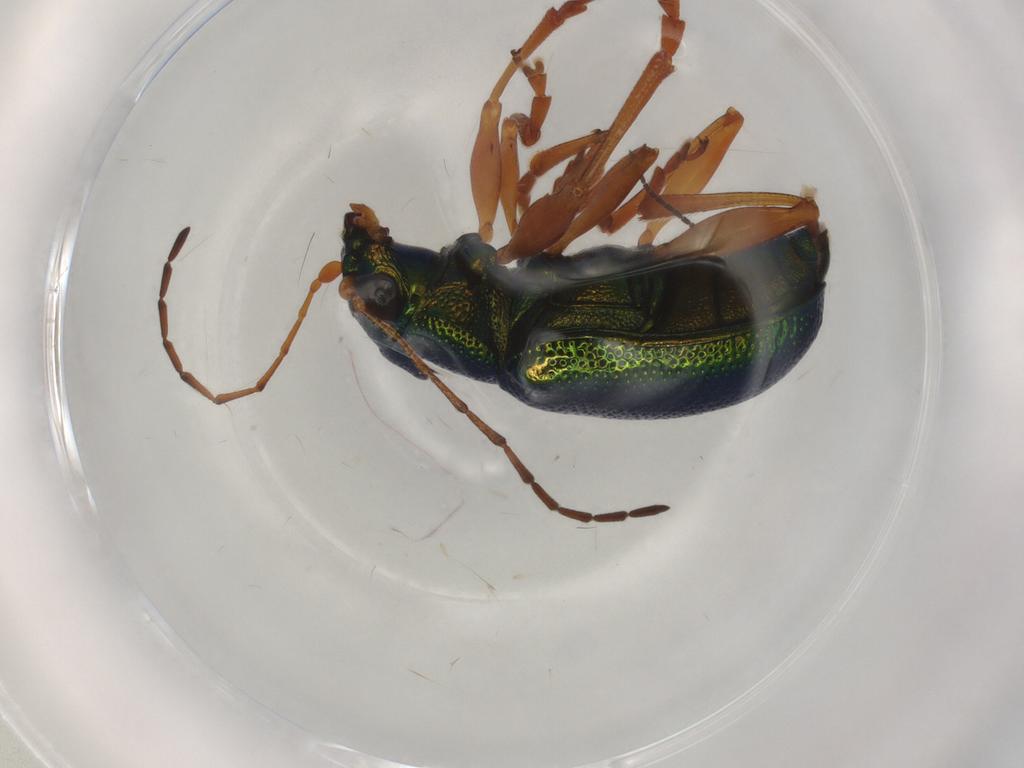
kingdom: Animalia
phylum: Arthropoda
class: Insecta
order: Coleoptera
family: Chrysomelidae
